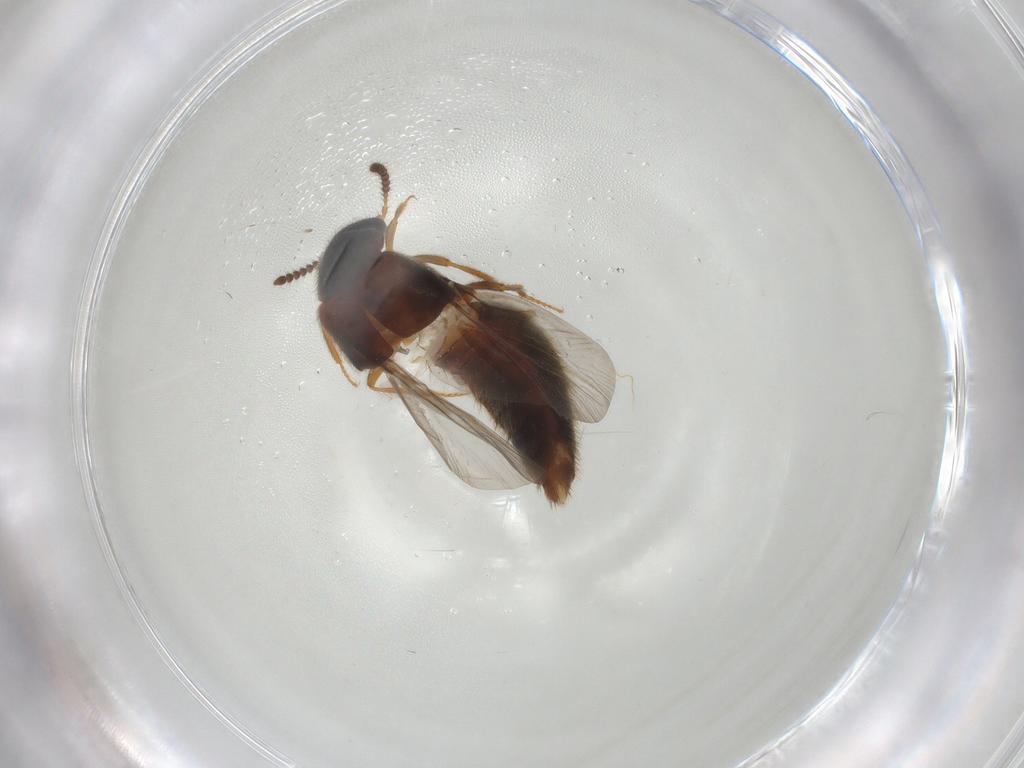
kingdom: Animalia
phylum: Arthropoda
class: Insecta
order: Coleoptera
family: Staphylinidae
